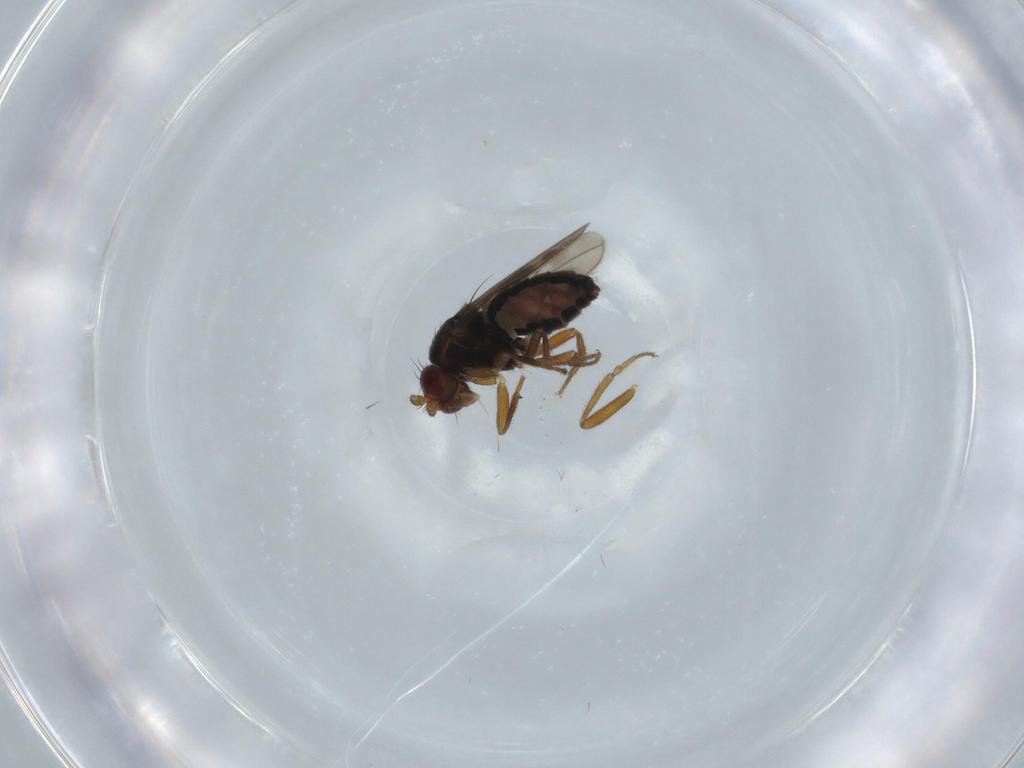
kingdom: Animalia
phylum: Arthropoda
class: Insecta
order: Diptera
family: Sphaeroceridae
